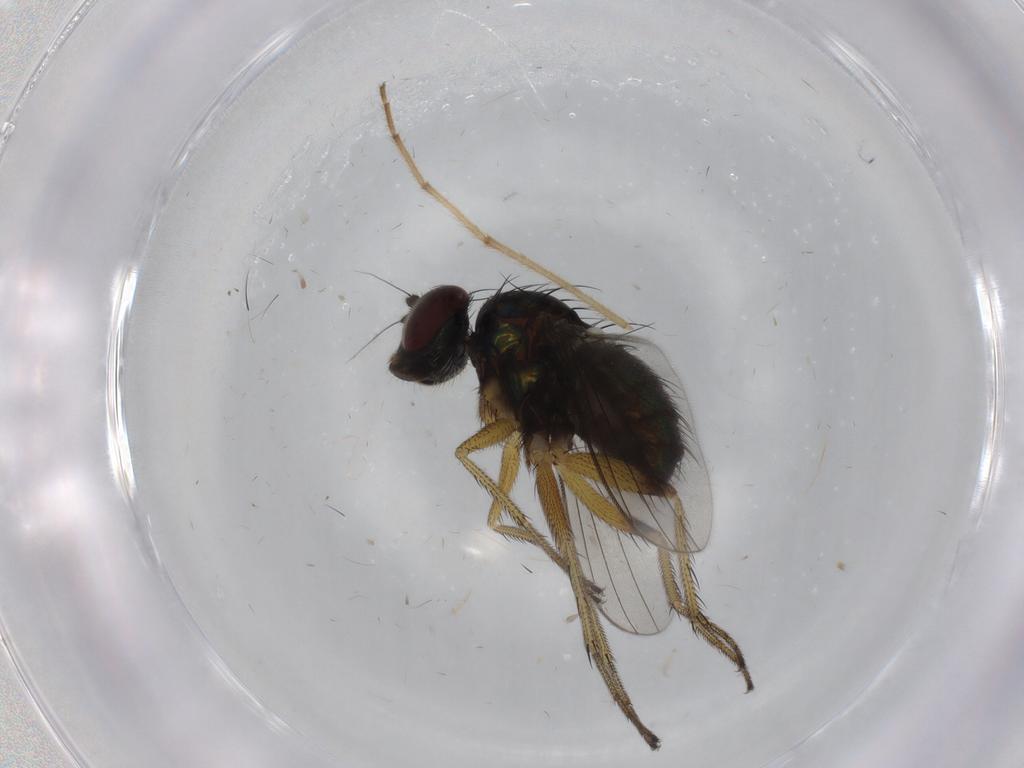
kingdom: Animalia
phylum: Arthropoda
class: Insecta
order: Diptera
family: Dolichopodidae
